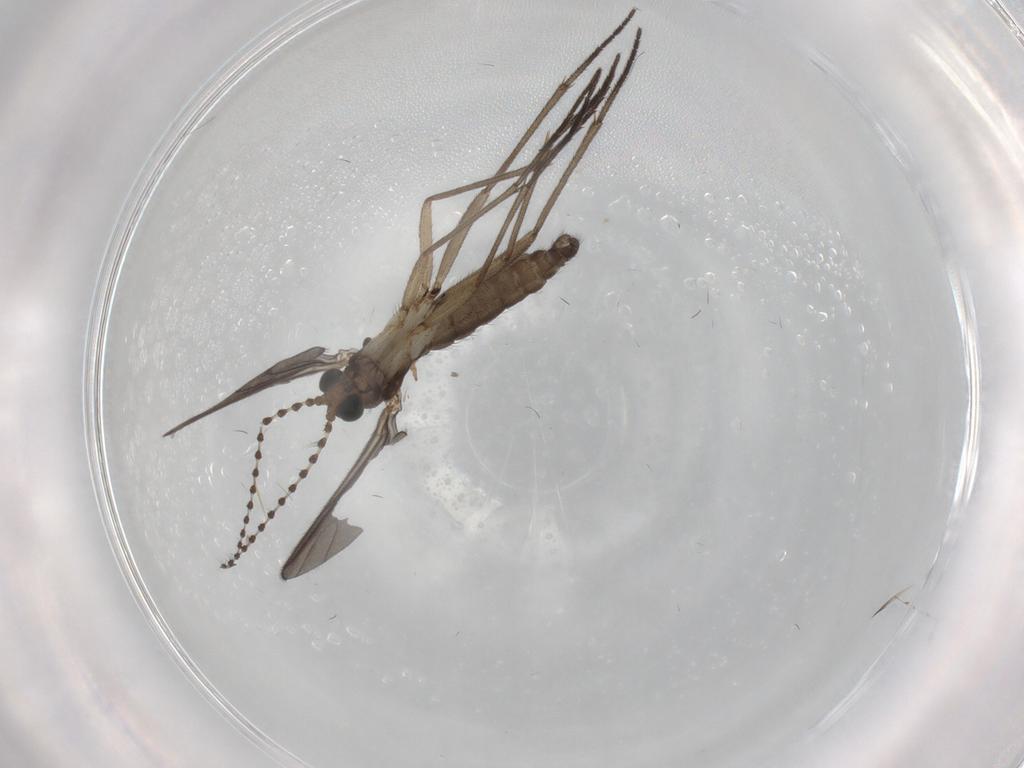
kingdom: Animalia
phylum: Arthropoda
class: Insecta
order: Diptera
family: Sciaridae
